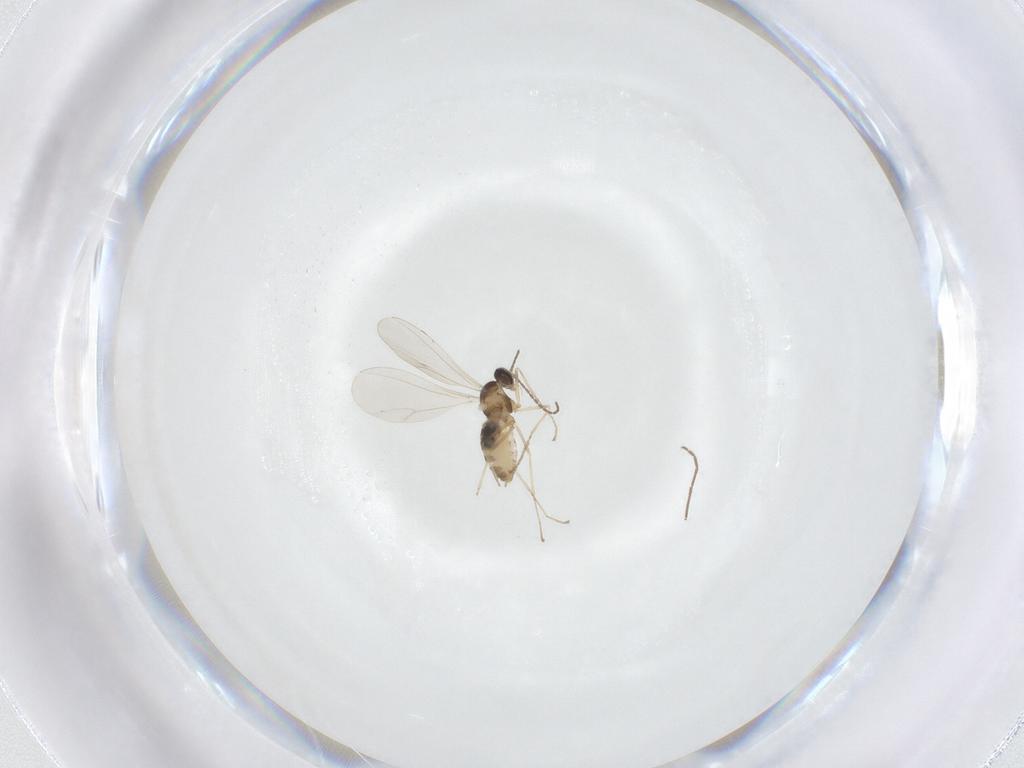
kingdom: Animalia
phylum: Arthropoda
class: Insecta
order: Diptera
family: Cecidomyiidae
